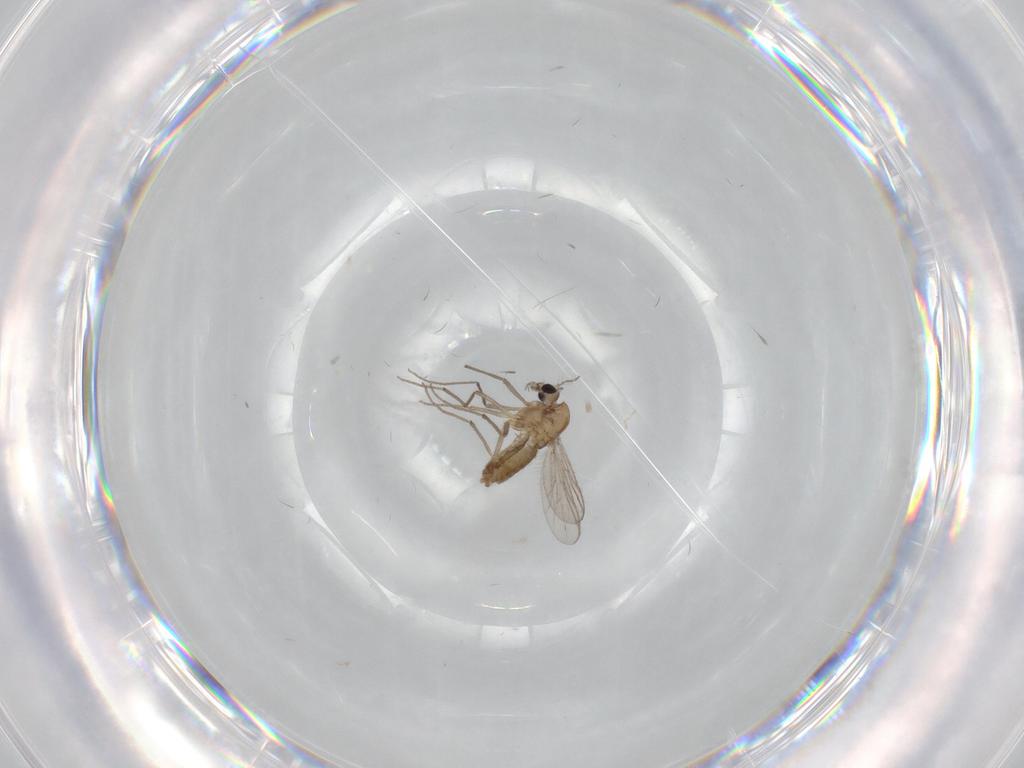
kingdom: Animalia
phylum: Arthropoda
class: Insecta
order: Diptera
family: Chironomidae
